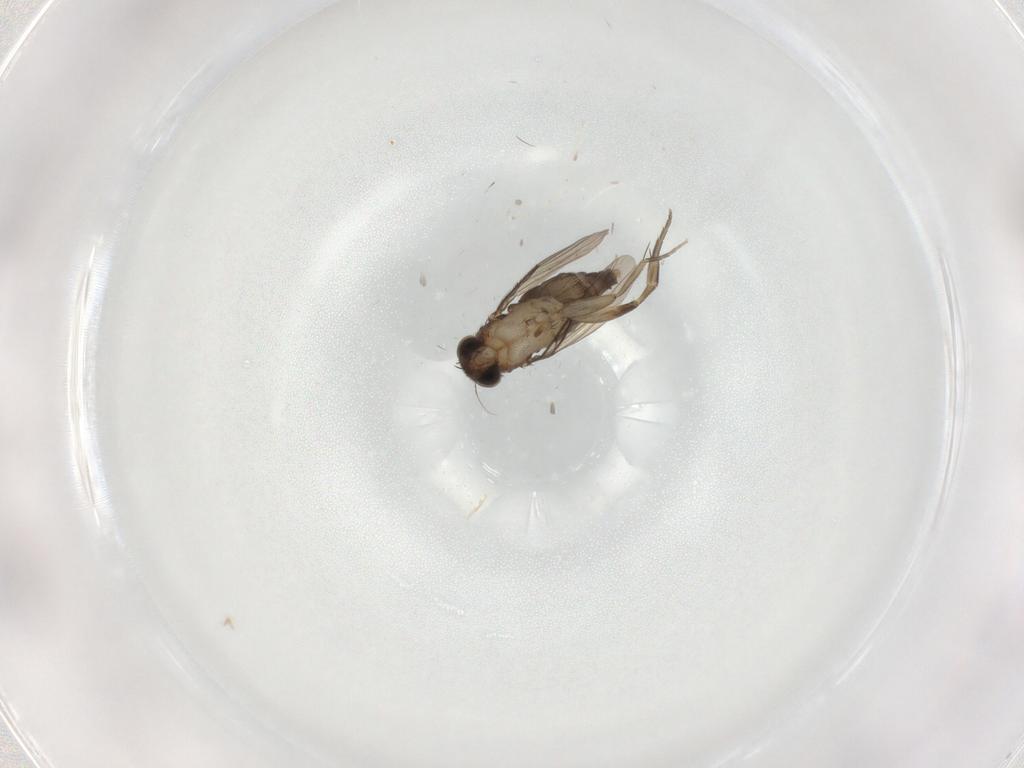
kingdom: Animalia
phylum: Arthropoda
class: Insecta
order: Diptera
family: Phoridae
